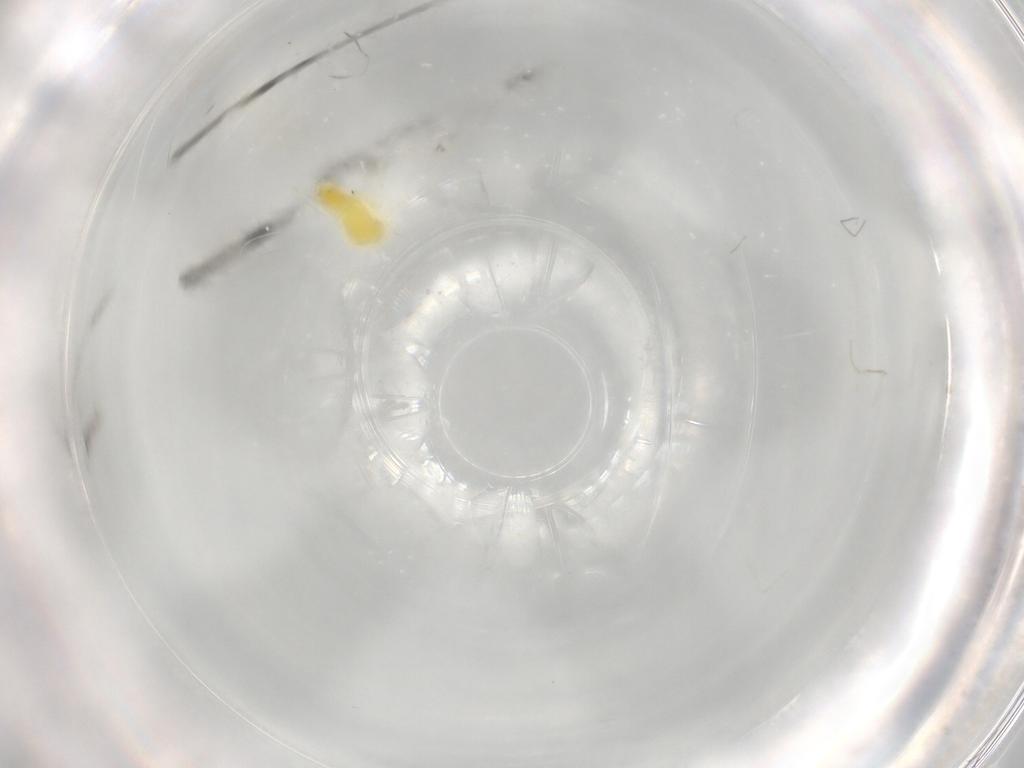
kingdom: Animalia
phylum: Arthropoda
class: Insecta
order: Hemiptera
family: Aleyrodidae
